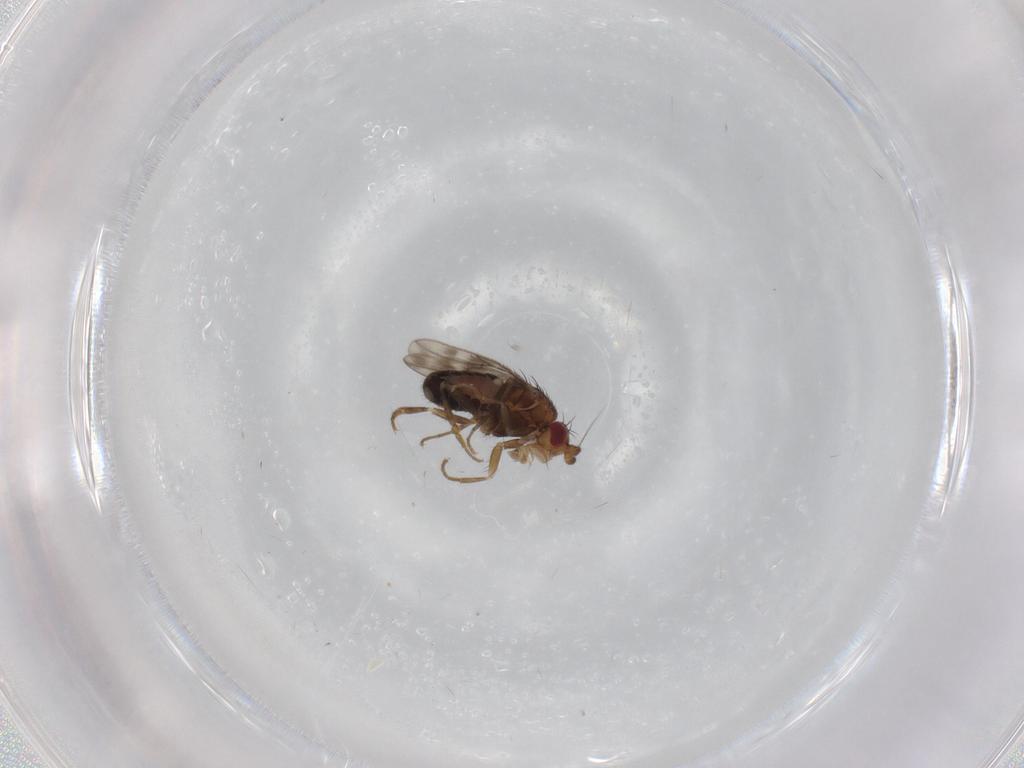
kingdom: Animalia
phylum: Arthropoda
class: Insecta
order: Diptera
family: Sphaeroceridae
